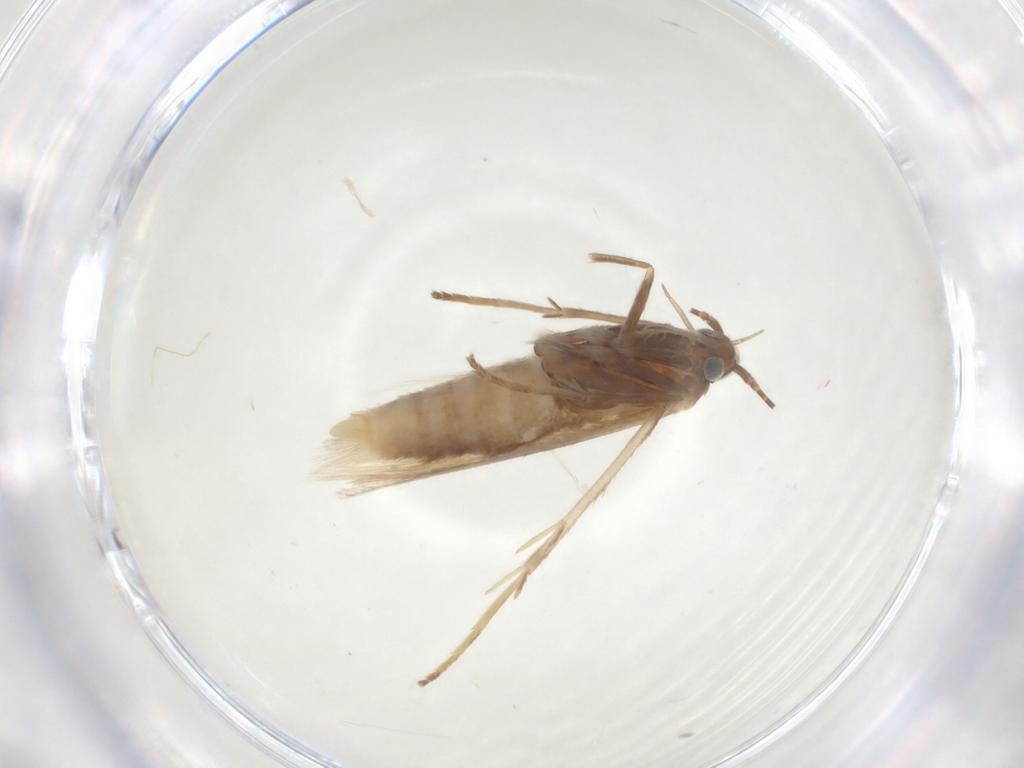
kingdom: Animalia
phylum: Arthropoda
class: Insecta
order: Lepidoptera
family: Coleophoridae
